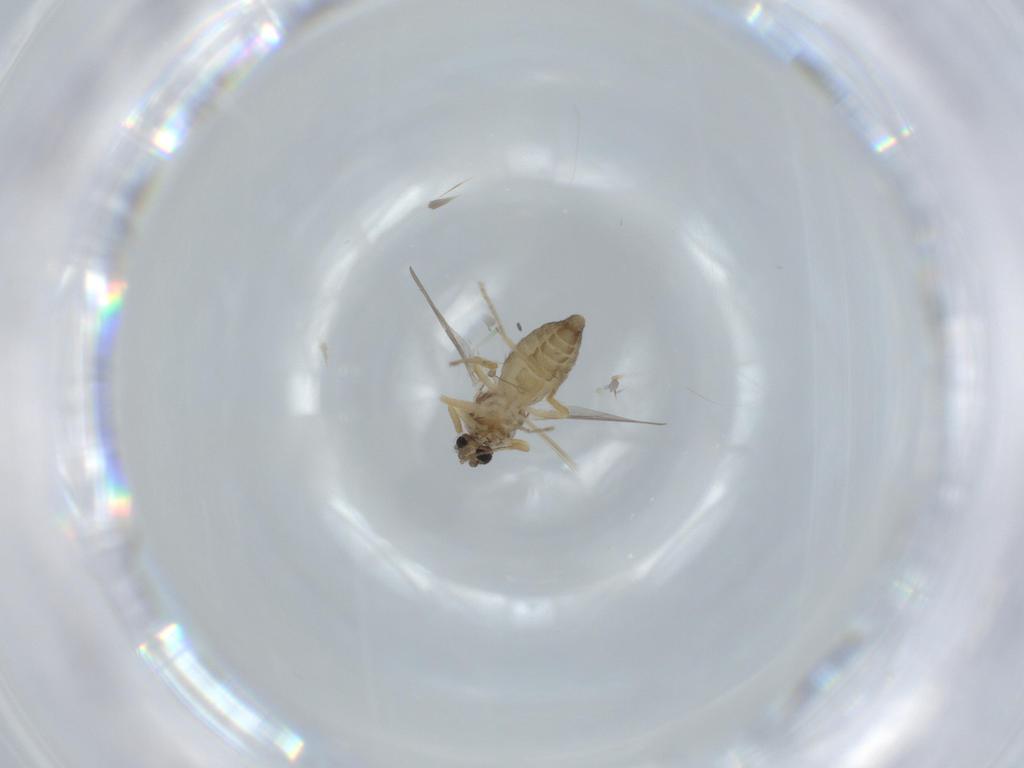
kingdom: Animalia
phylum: Arthropoda
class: Insecta
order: Diptera
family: Ceratopogonidae
